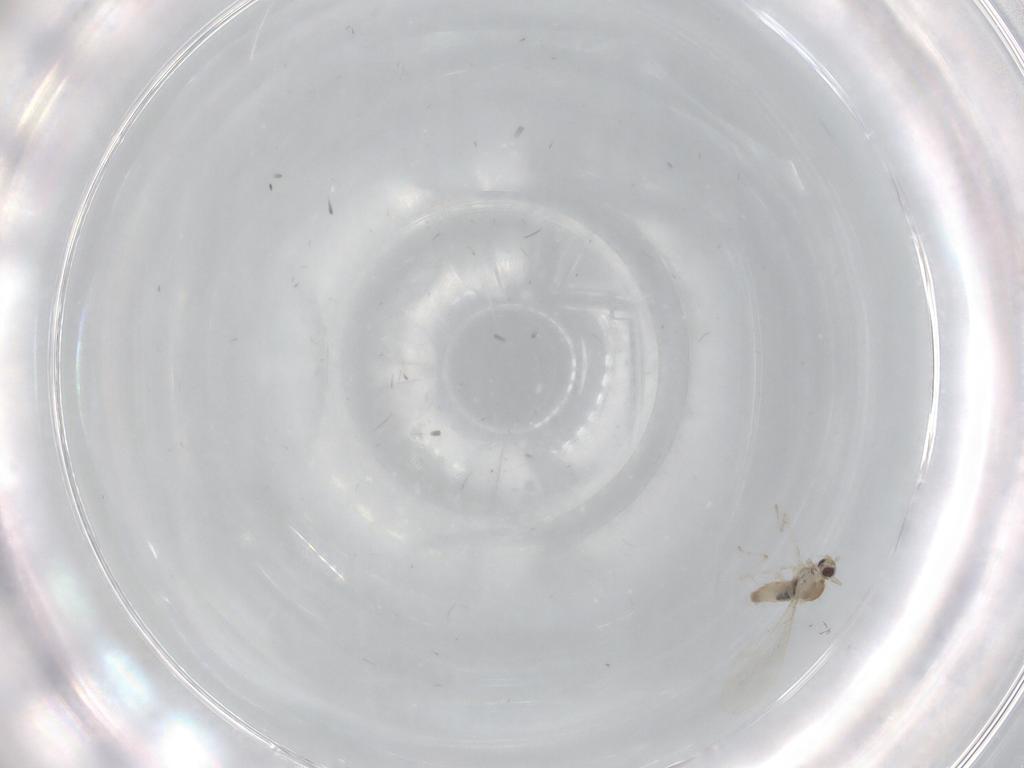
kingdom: Animalia
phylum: Arthropoda
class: Insecta
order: Diptera
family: Cecidomyiidae
